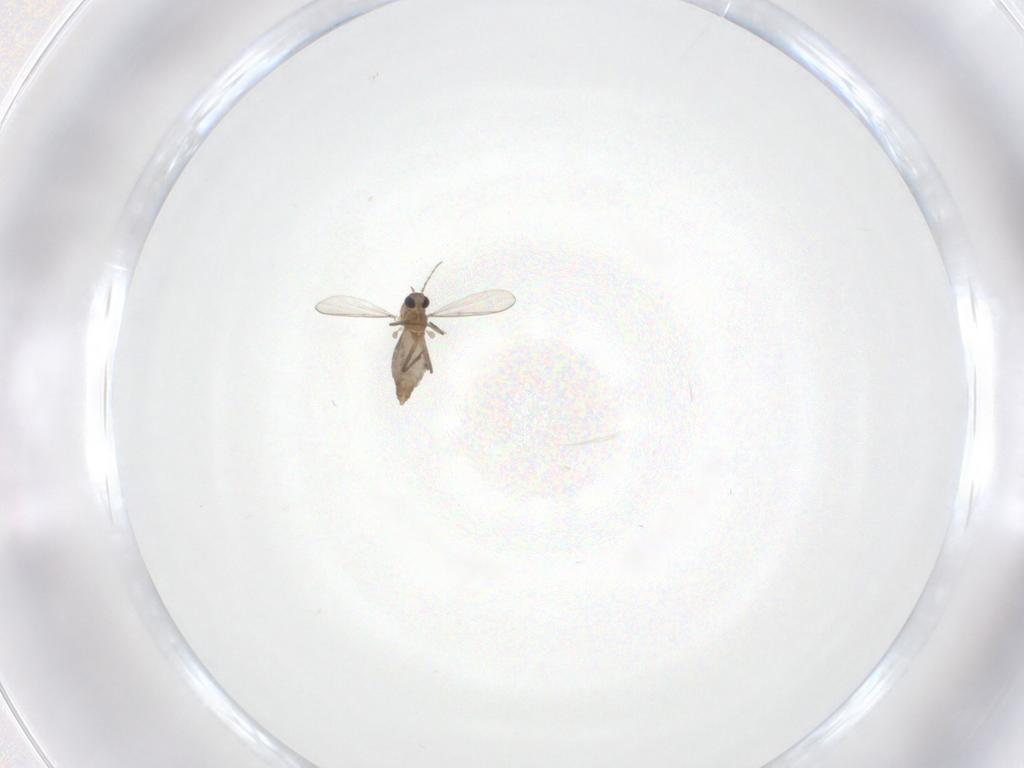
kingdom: Animalia
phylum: Arthropoda
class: Insecta
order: Diptera
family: Chironomidae
